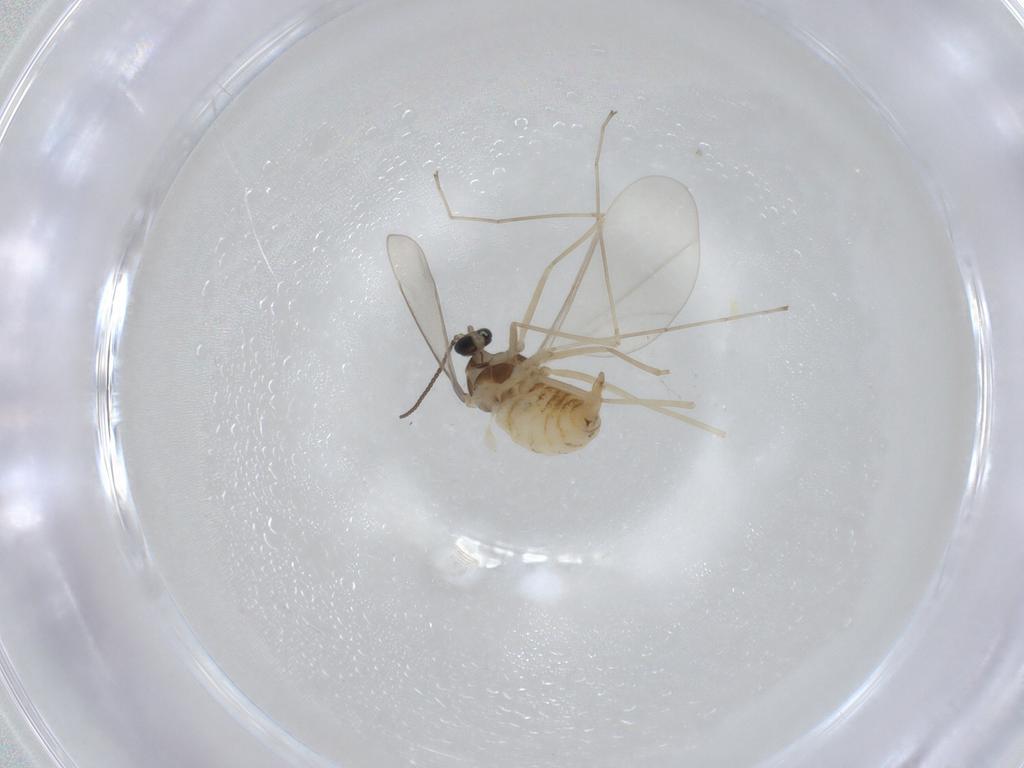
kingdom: Animalia
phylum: Arthropoda
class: Insecta
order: Diptera
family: Cecidomyiidae
